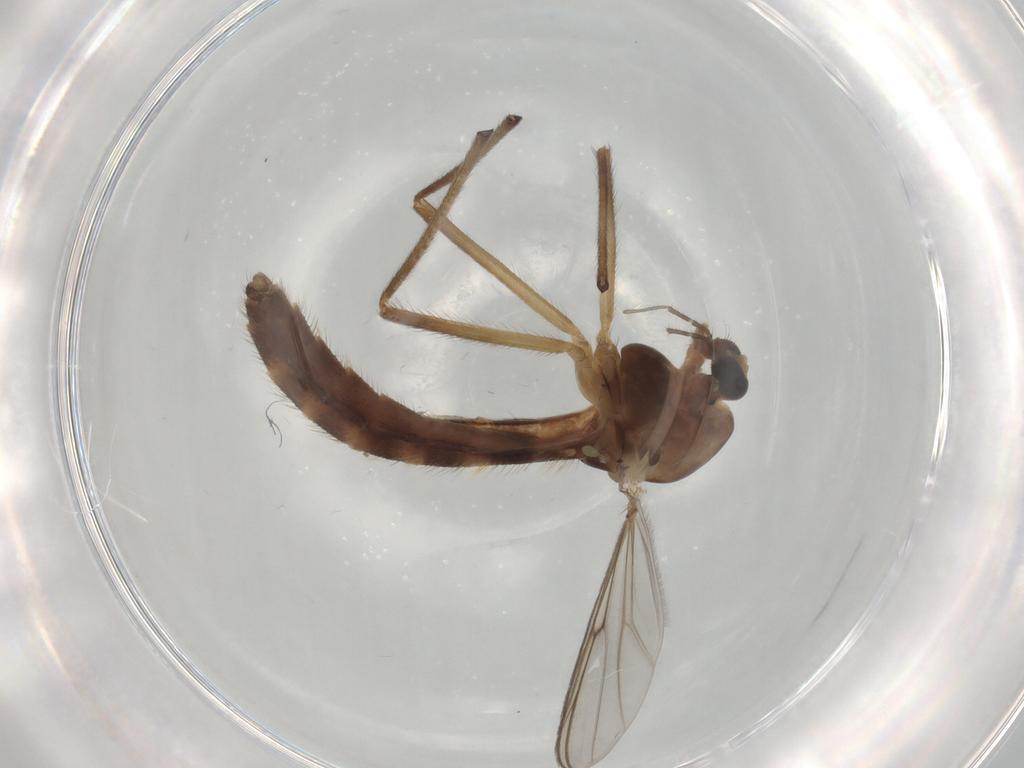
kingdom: Animalia
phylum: Arthropoda
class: Insecta
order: Diptera
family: Chironomidae
